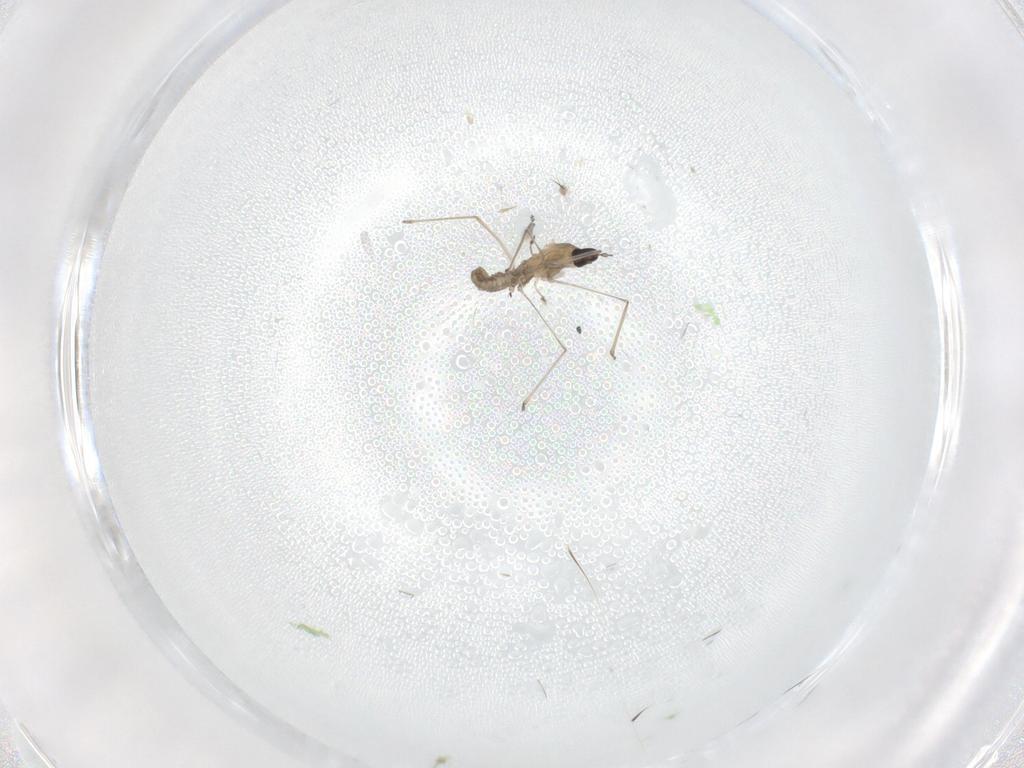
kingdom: Animalia
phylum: Arthropoda
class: Insecta
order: Diptera
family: Cecidomyiidae
